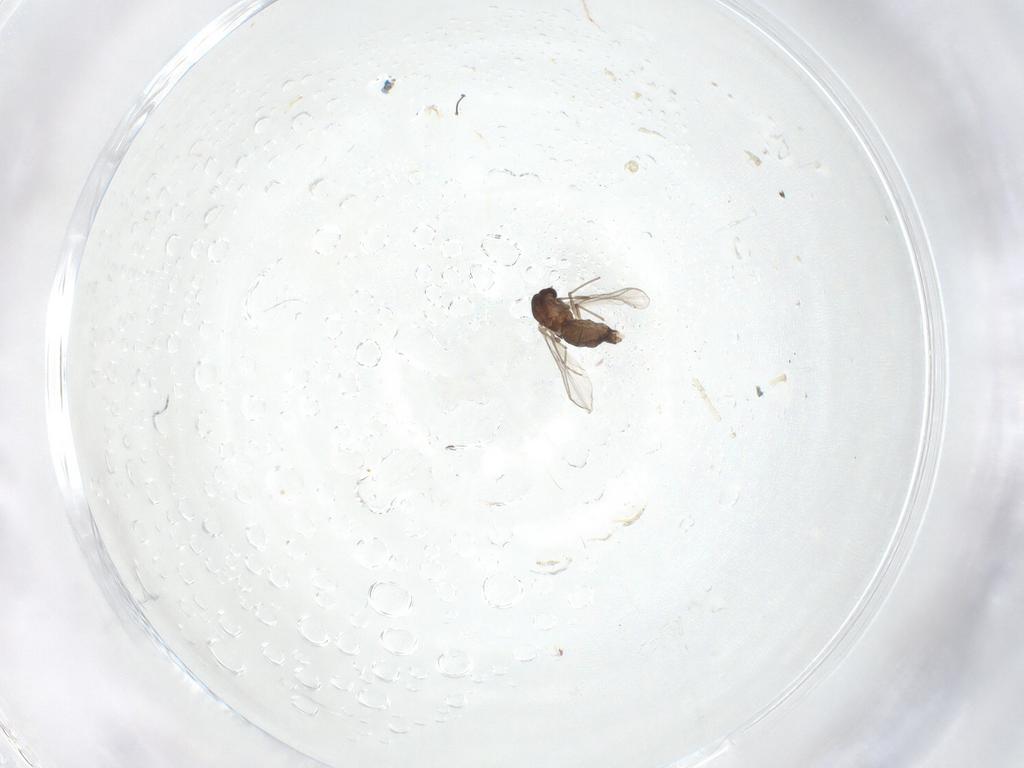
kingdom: Animalia
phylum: Arthropoda
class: Insecta
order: Diptera
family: Chironomidae
